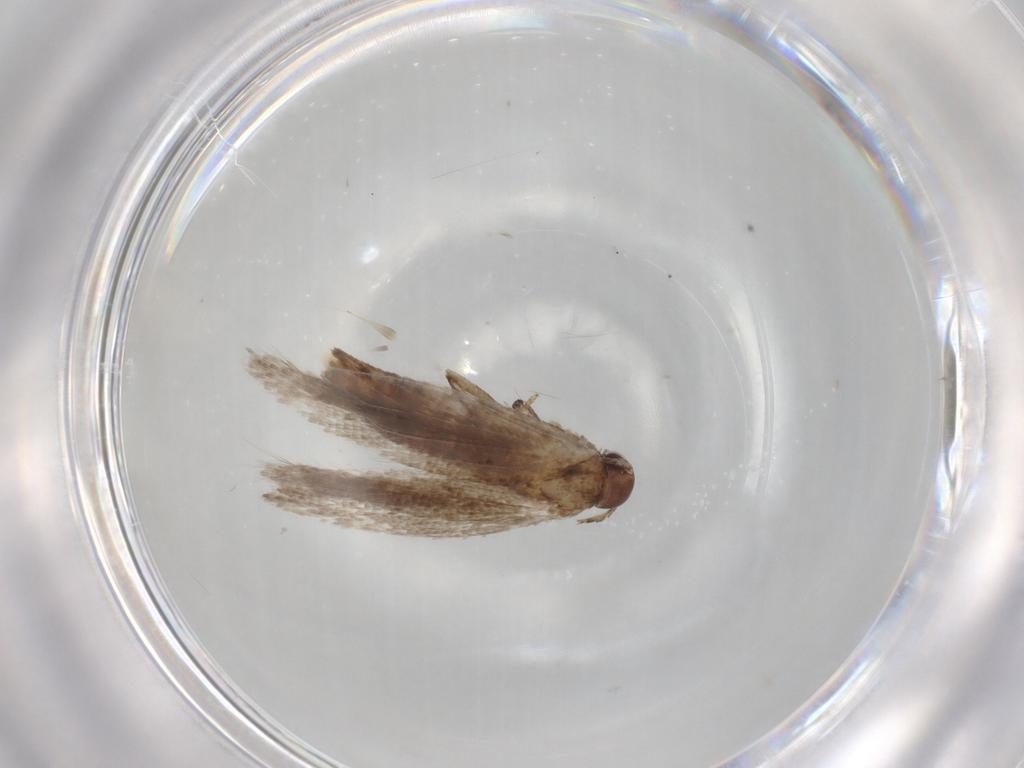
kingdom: Animalia
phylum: Arthropoda
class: Insecta
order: Lepidoptera
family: Gelechiidae
